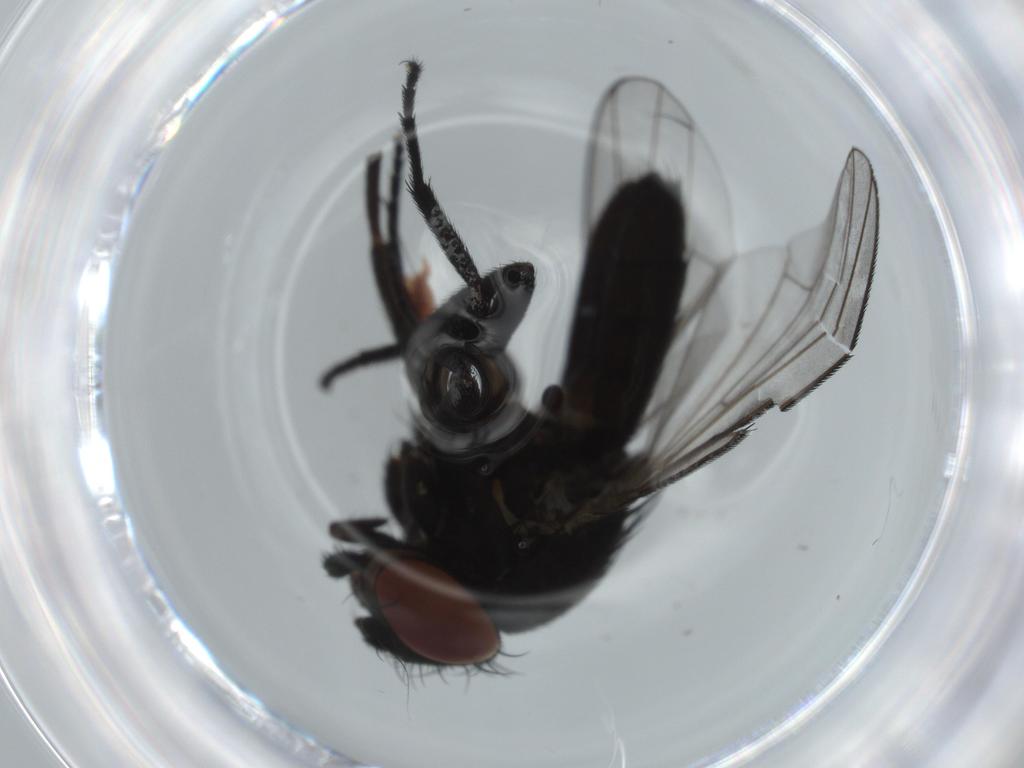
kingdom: Animalia
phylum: Arthropoda
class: Insecta
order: Diptera
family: Milichiidae
